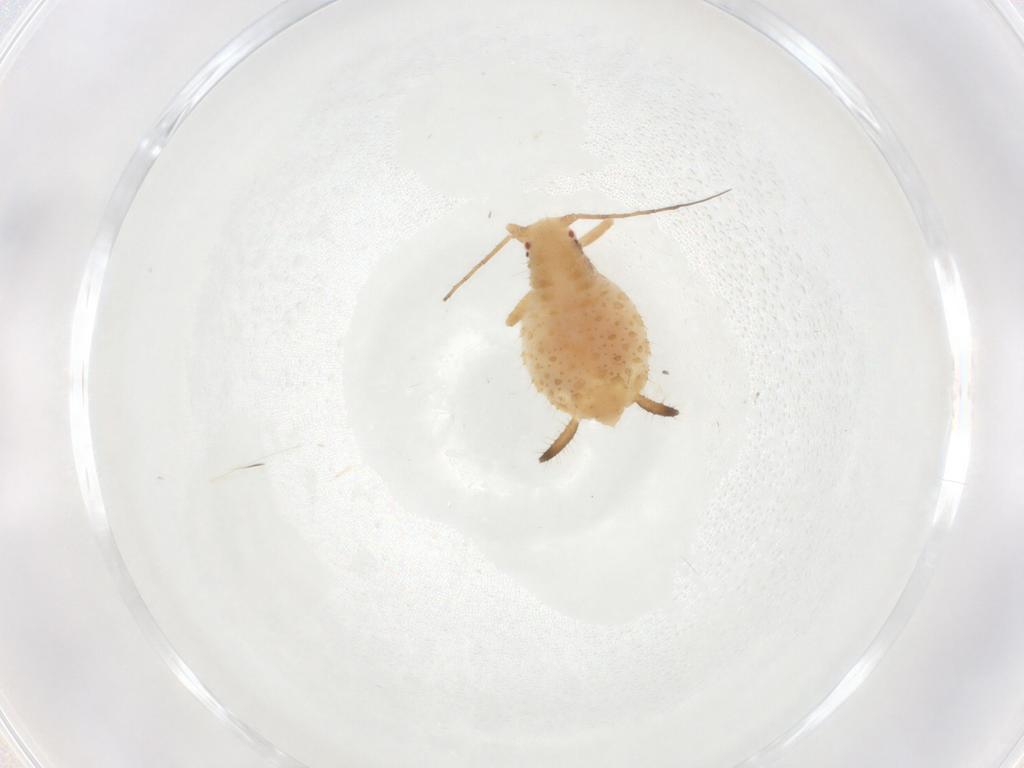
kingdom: Animalia
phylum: Arthropoda
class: Insecta
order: Hemiptera
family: Aphididae
